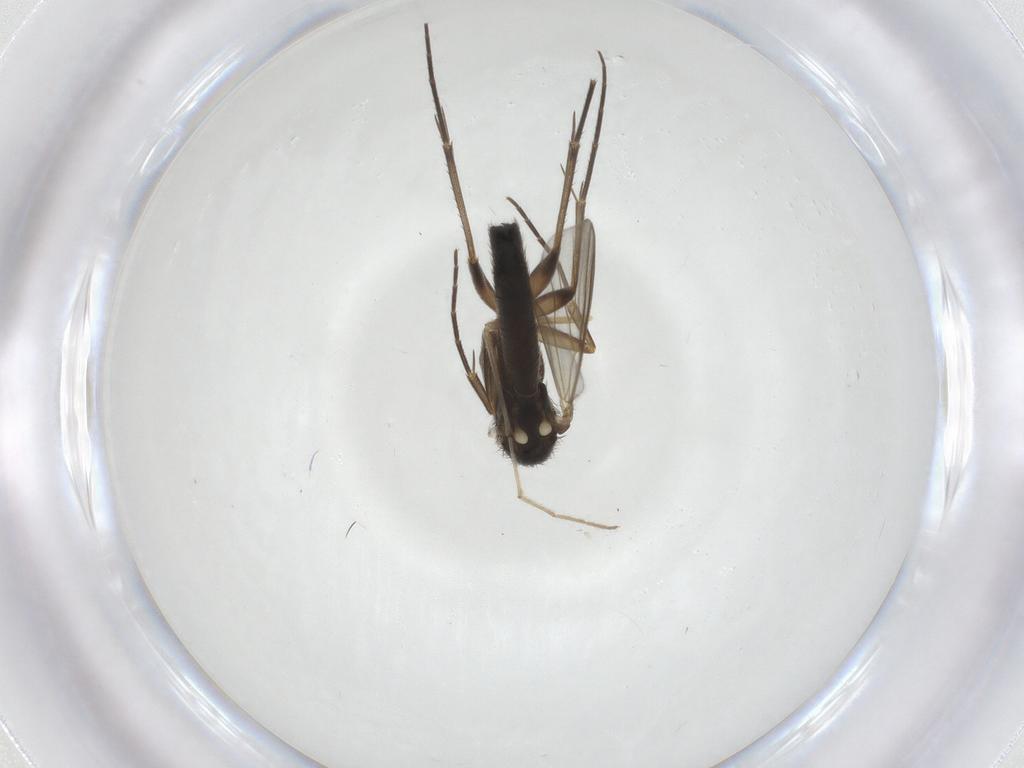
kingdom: Animalia
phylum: Arthropoda
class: Insecta
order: Diptera
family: Mycetophilidae
